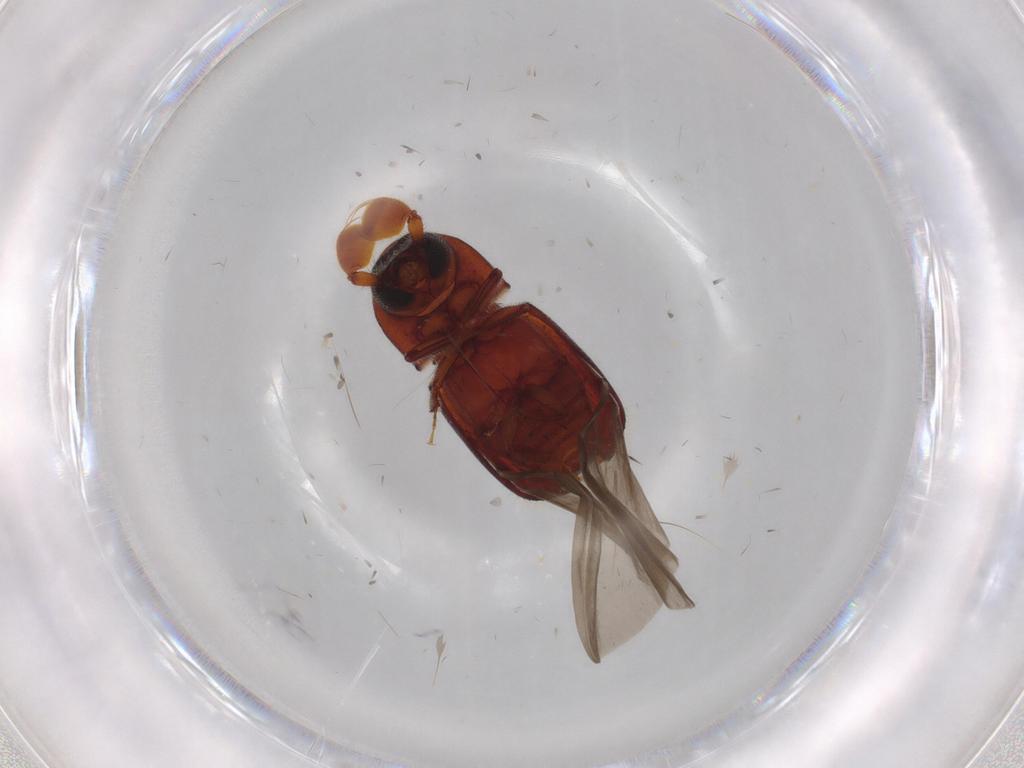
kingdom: Animalia
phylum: Arthropoda
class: Insecta
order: Coleoptera
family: Curculionidae
